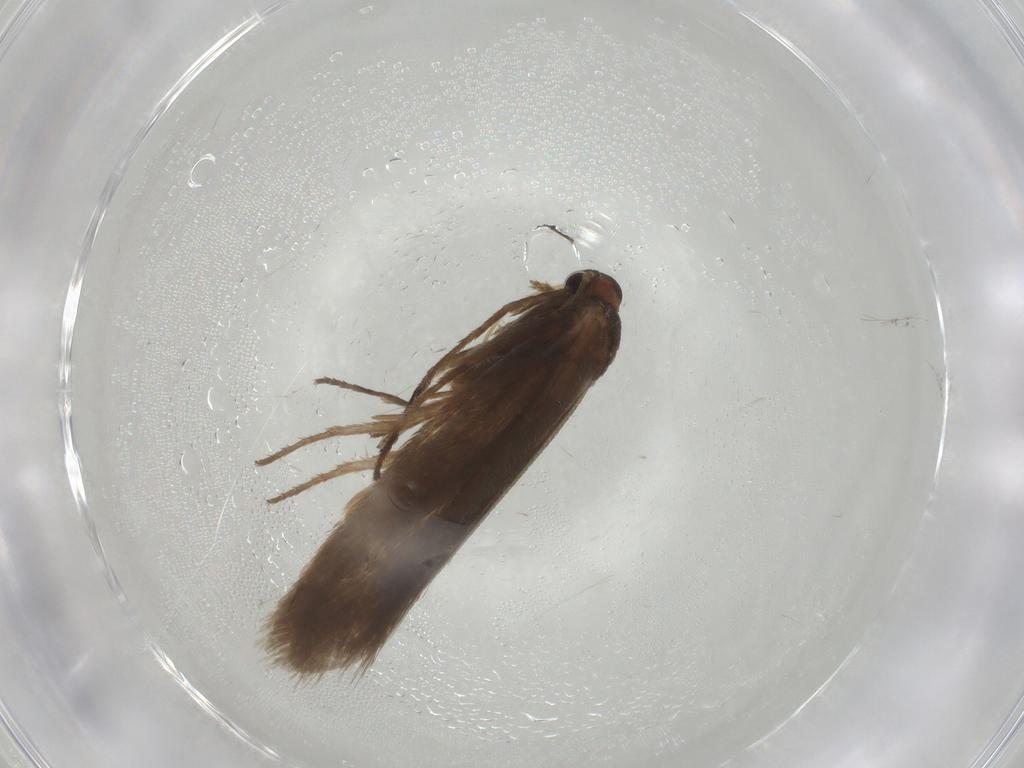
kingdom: Animalia
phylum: Arthropoda
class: Insecta
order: Lepidoptera
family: Limacodidae
